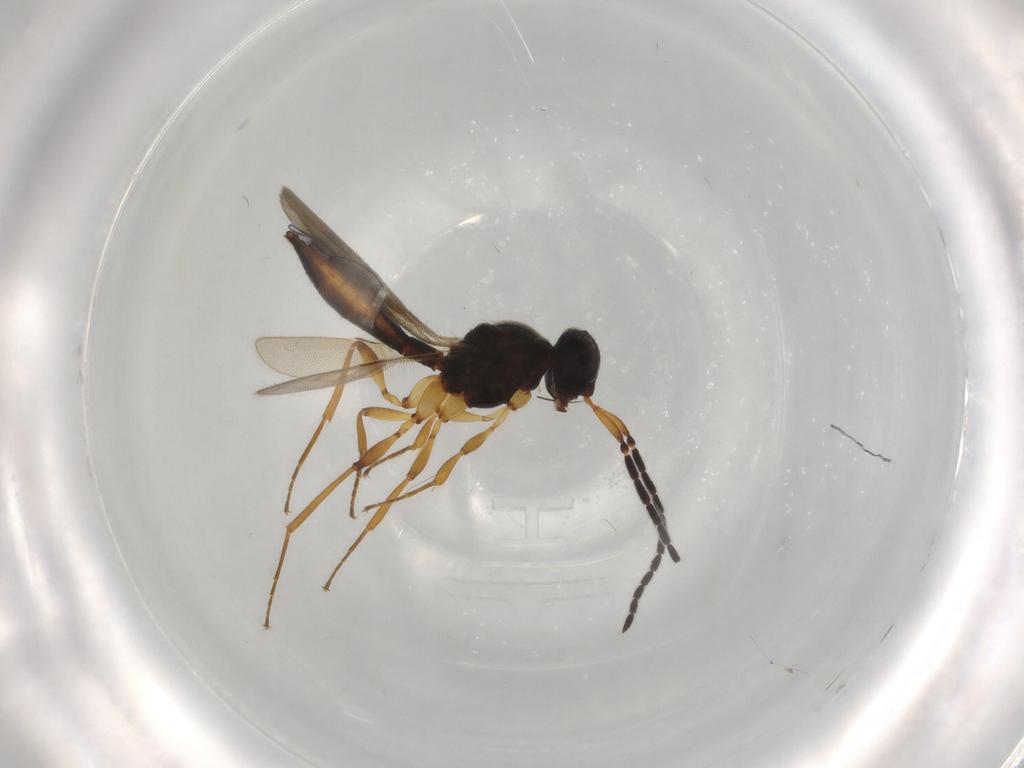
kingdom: Animalia
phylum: Arthropoda
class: Insecta
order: Hymenoptera
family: Scelionidae
